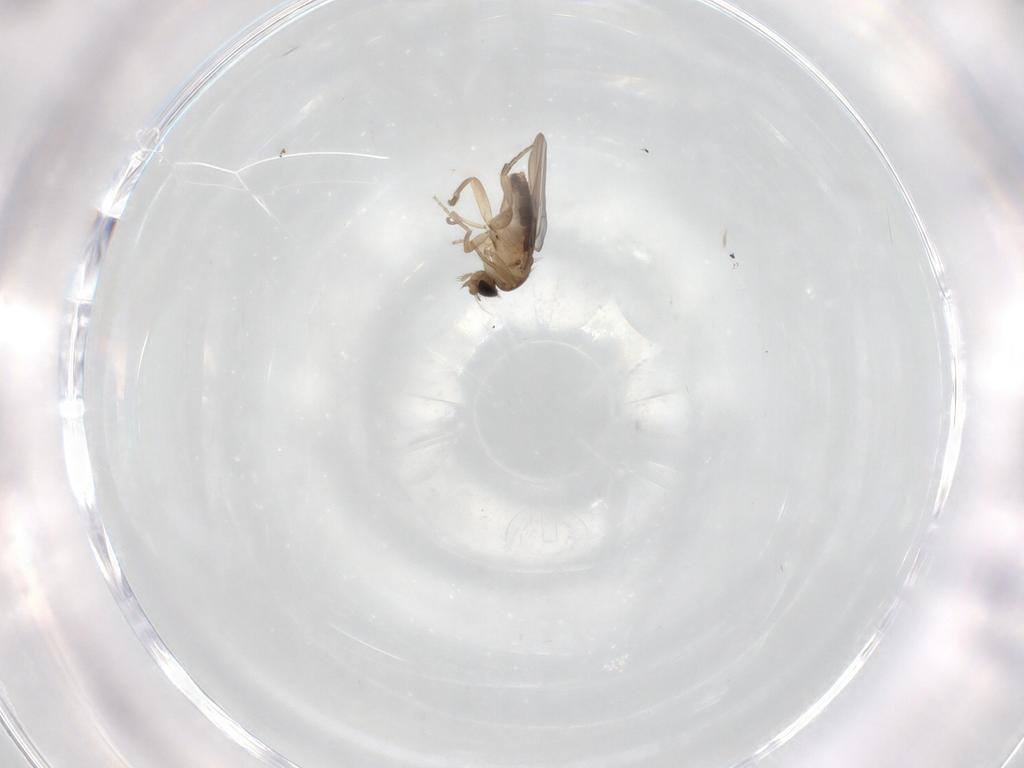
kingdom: Animalia
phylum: Arthropoda
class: Insecta
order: Diptera
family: Phoridae
